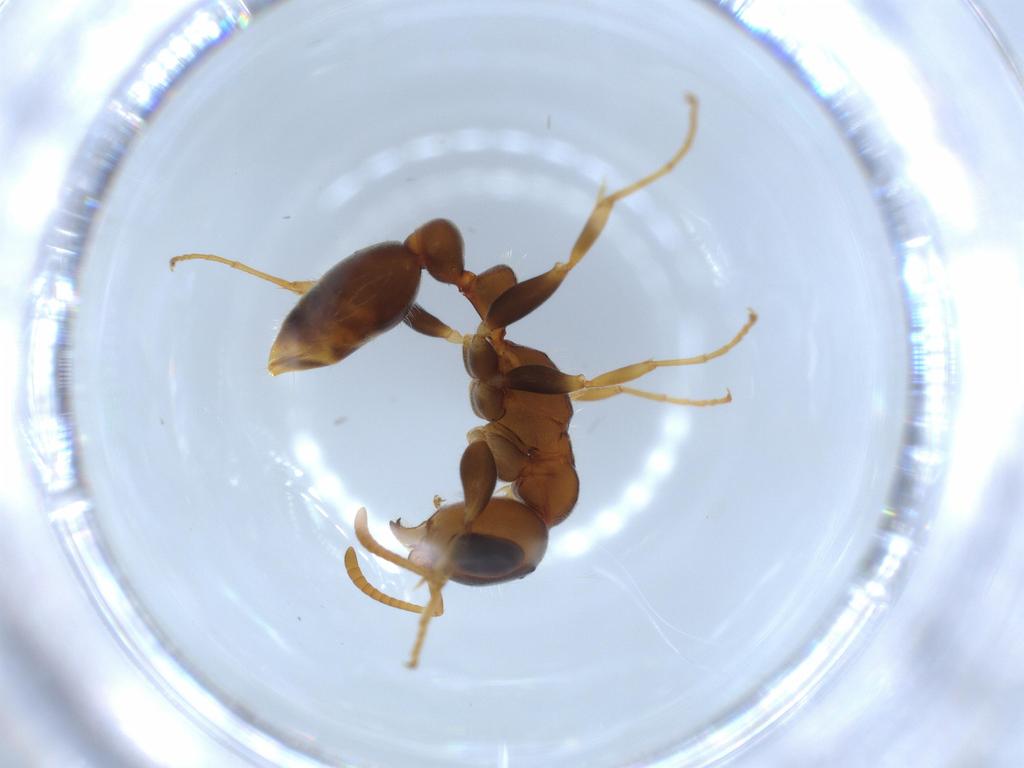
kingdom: Animalia
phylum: Arthropoda
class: Insecta
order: Hymenoptera
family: Formicidae
